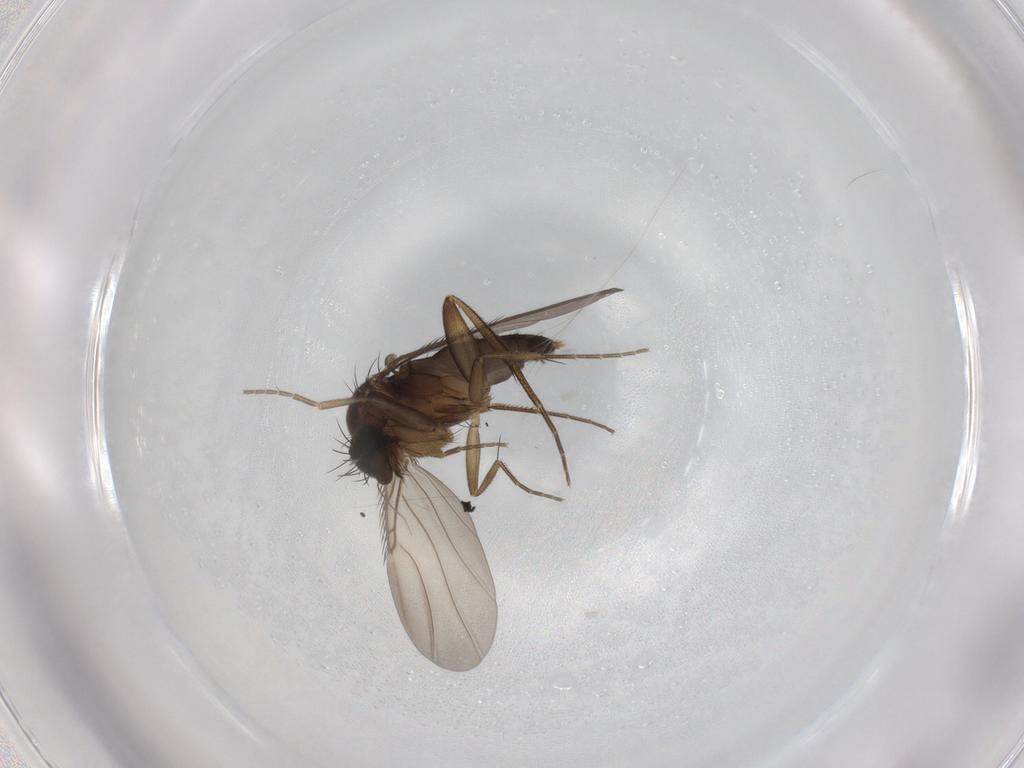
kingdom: Animalia
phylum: Arthropoda
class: Insecta
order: Diptera
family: Phoridae
